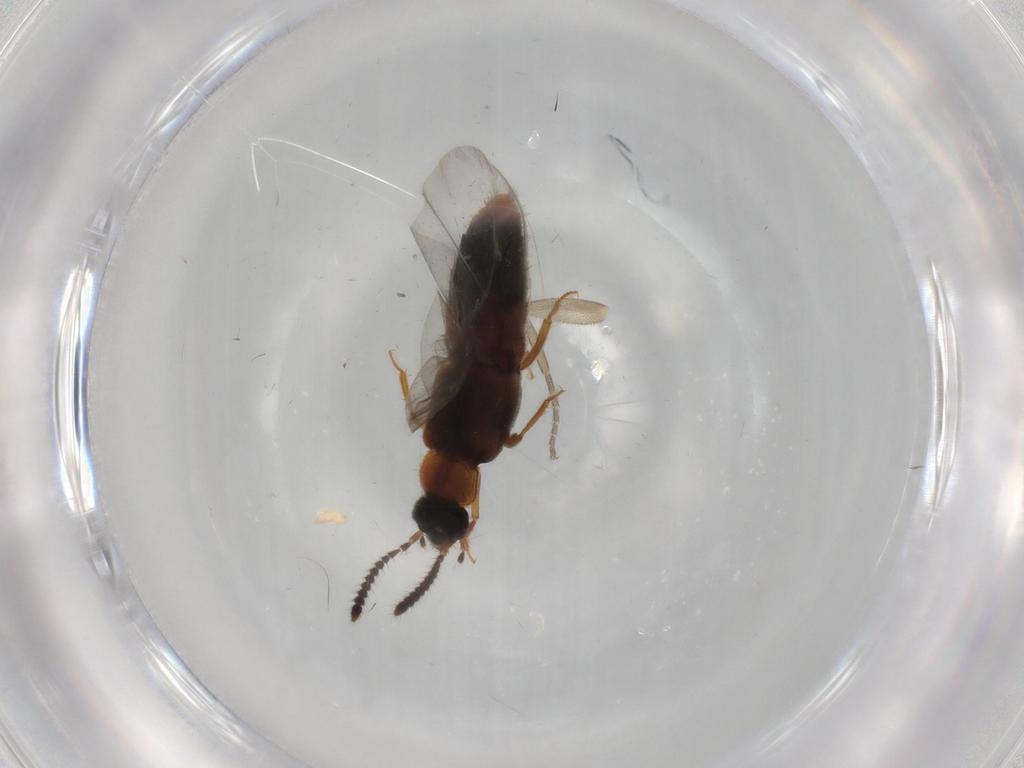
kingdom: Animalia
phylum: Arthropoda
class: Insecta
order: Coleoptera
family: Staphylinidae
